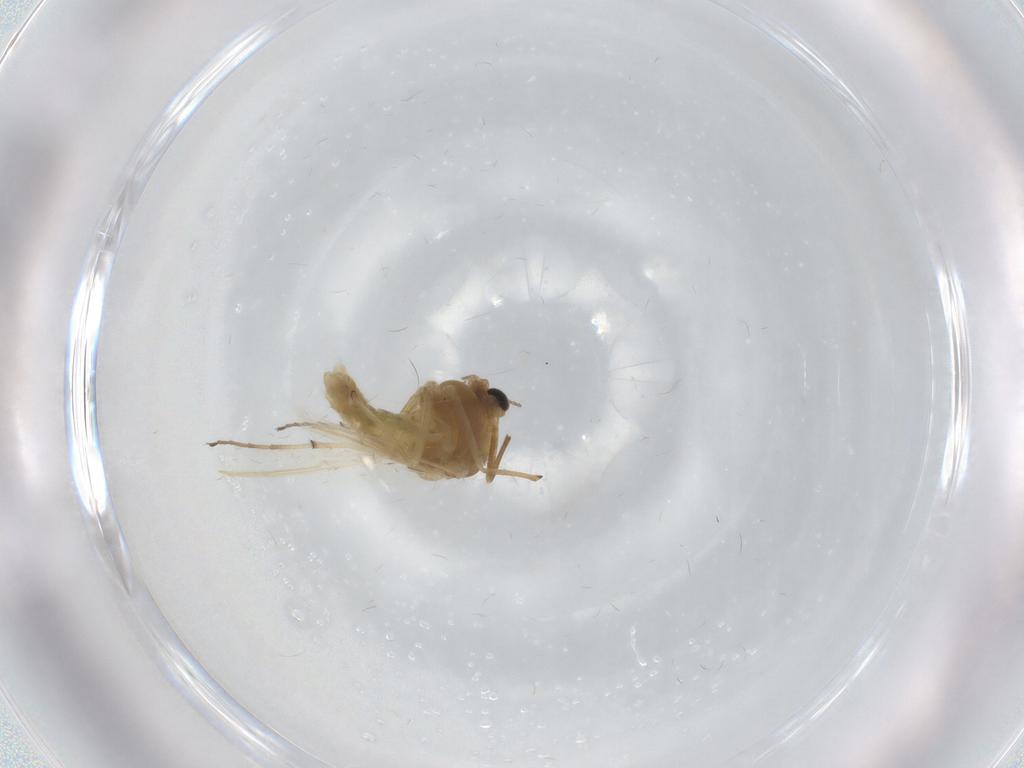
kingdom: Animalia
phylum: Arthropoda
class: Insecta
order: Diptera
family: Chironomidae
